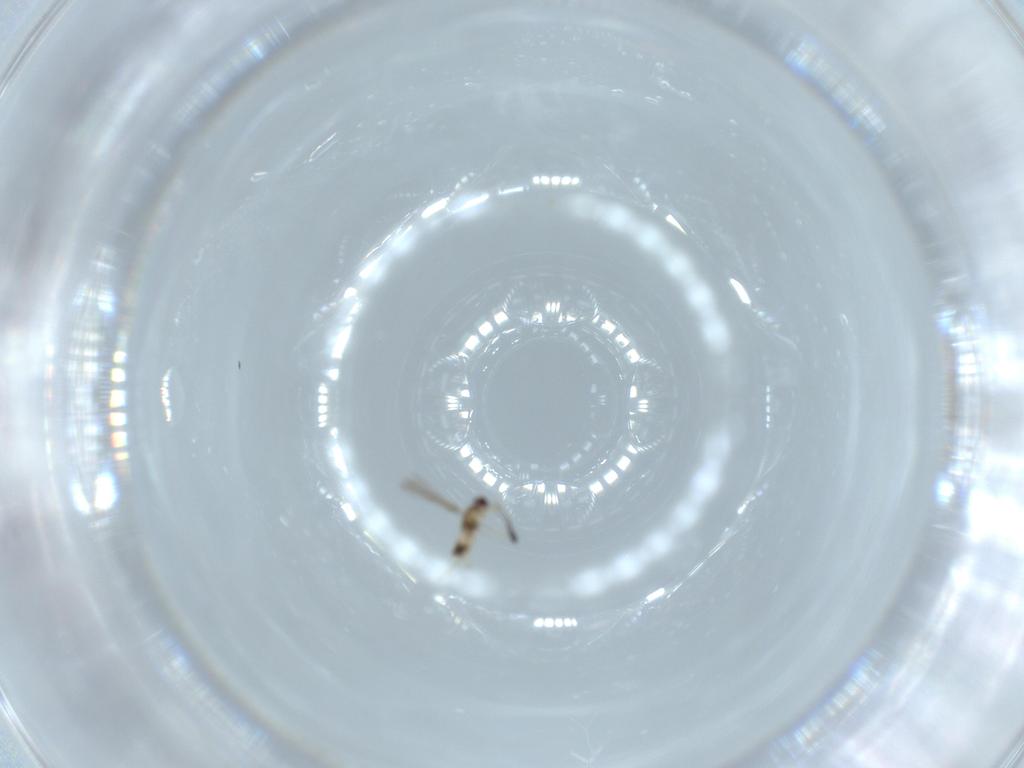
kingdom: Animalia
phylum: Arthropoda
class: Insecta
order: Hymenoptera
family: Mymaridae
